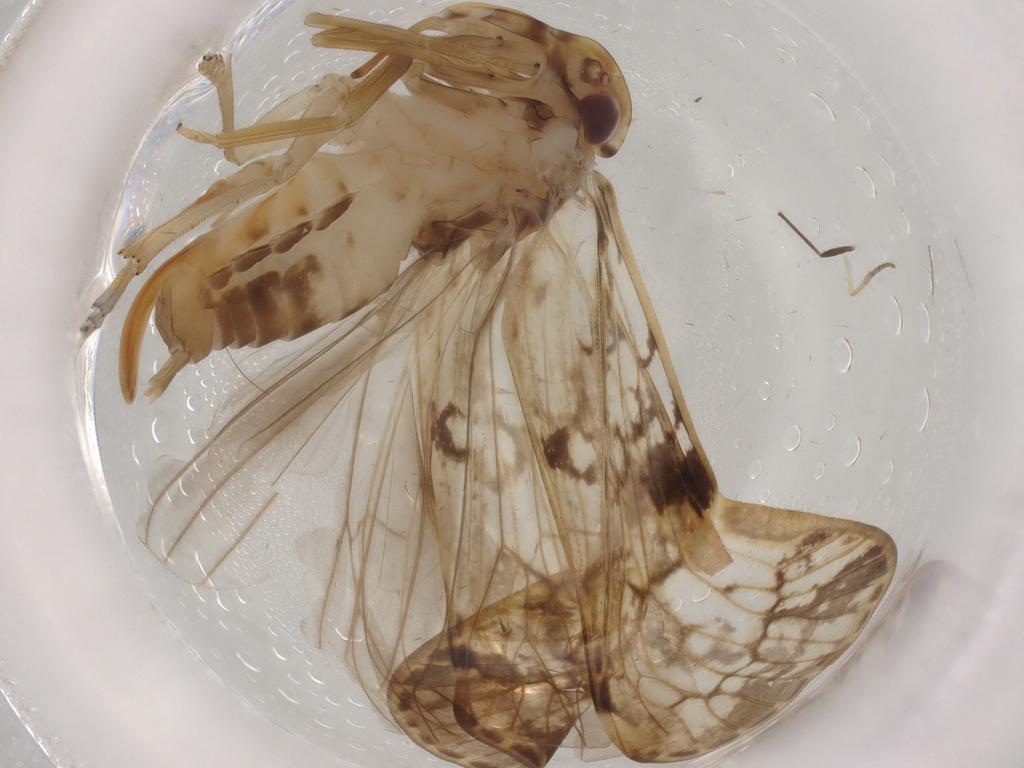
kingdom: Animalia
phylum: Arthropoda
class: Insecta
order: Hemiptera
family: Cixiidae
